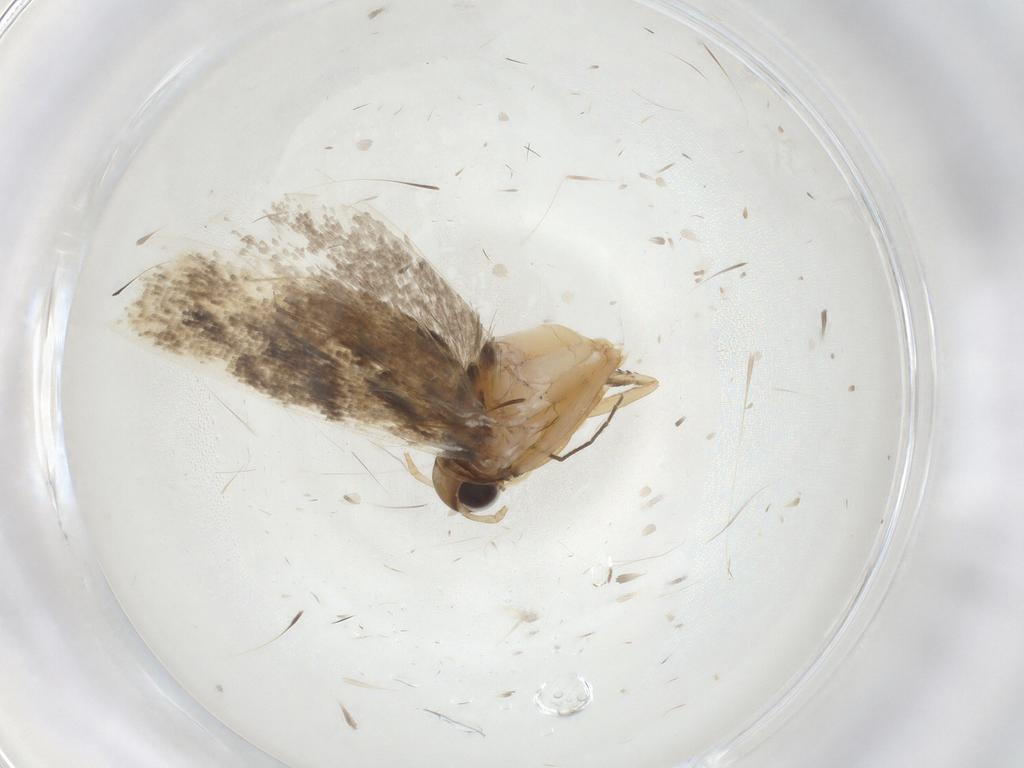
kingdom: Animalia
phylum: Arthropoda
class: Insecta
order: Lepidoptera
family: Gelechiidae
